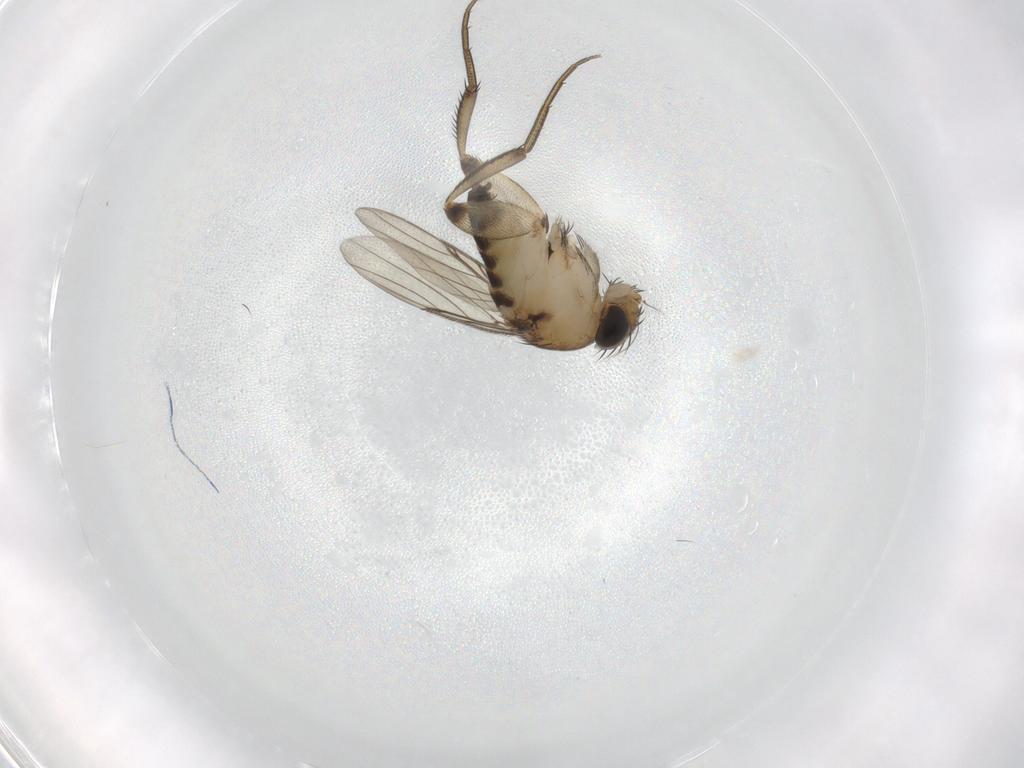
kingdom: Animalia
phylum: Arthropoda
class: Insecta
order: Diptera
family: Phoridae
